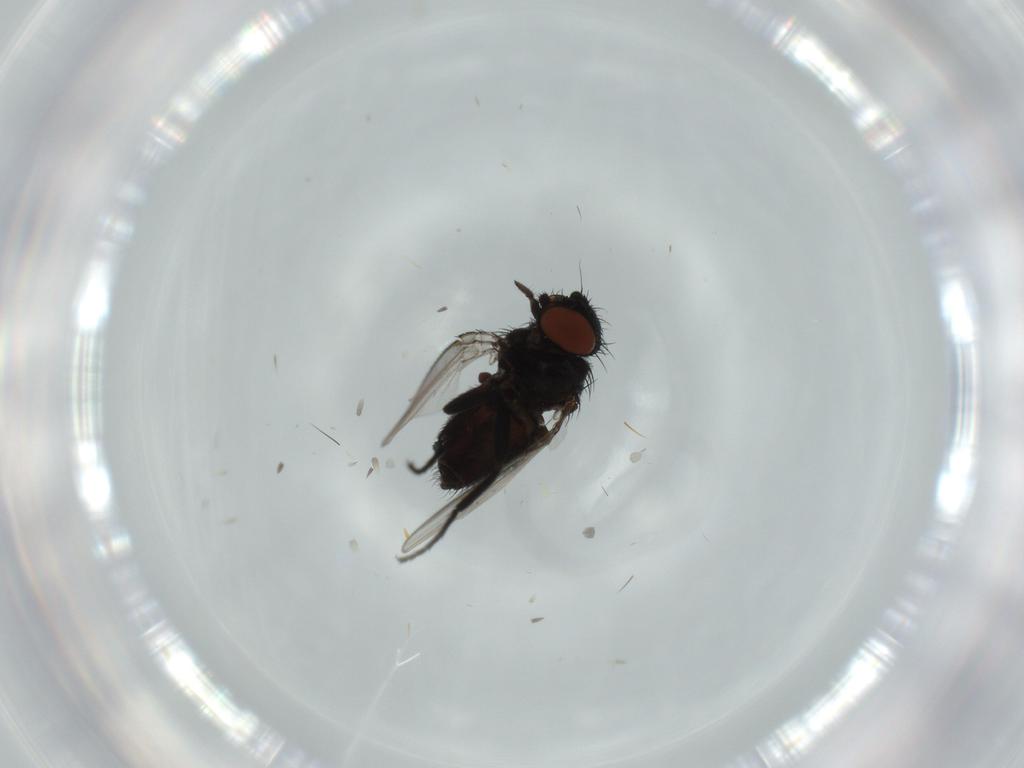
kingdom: Animalia
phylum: Arthropoda
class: Insecta
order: Diptera
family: Milichiidae
